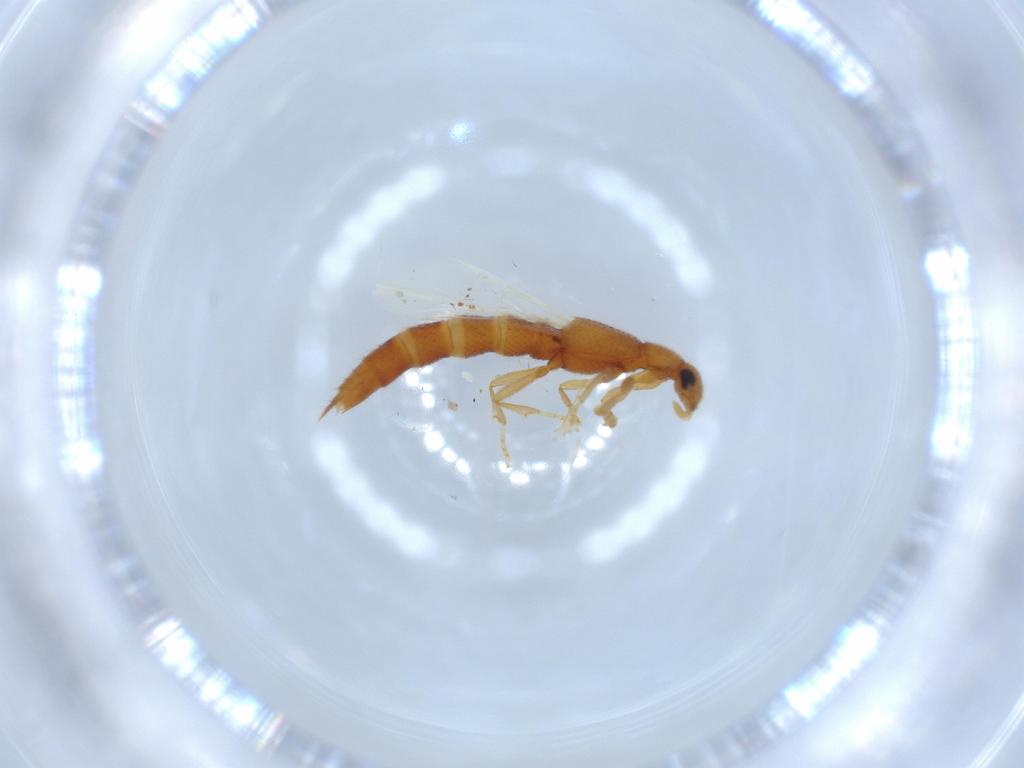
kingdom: Animalia
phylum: Arthropoda
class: Insecta
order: Coleoptera
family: Staphylinidae
